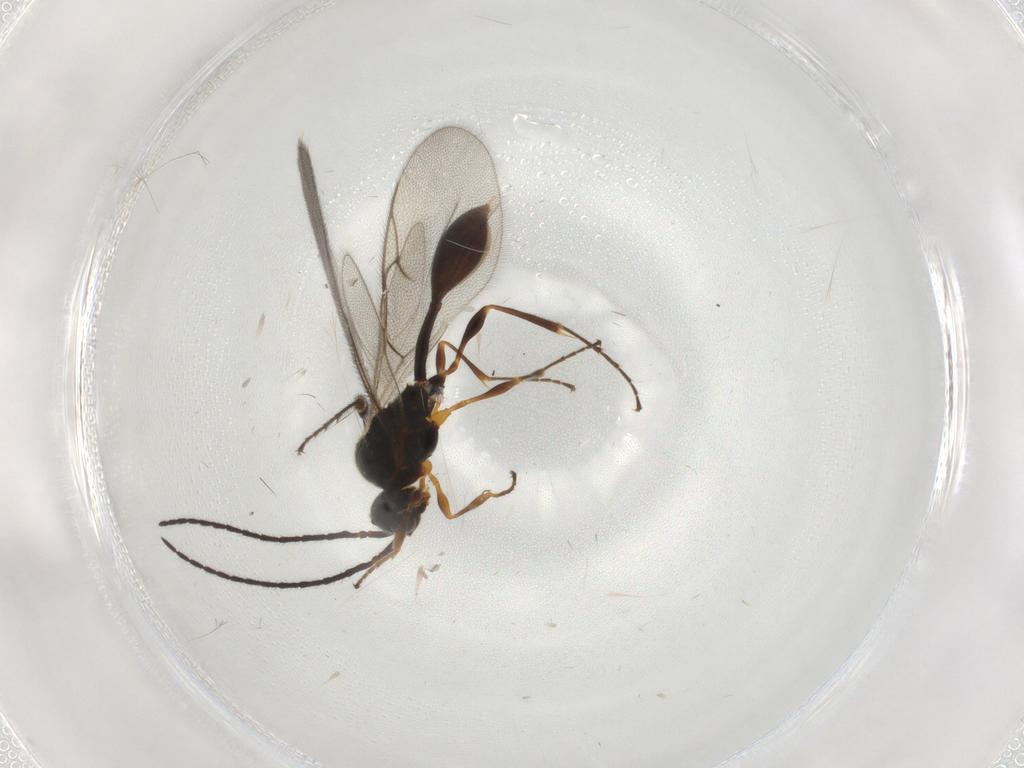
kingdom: Animalia
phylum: Arthropoda
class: Insecta
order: Hymenoptera
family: Diapriidae
